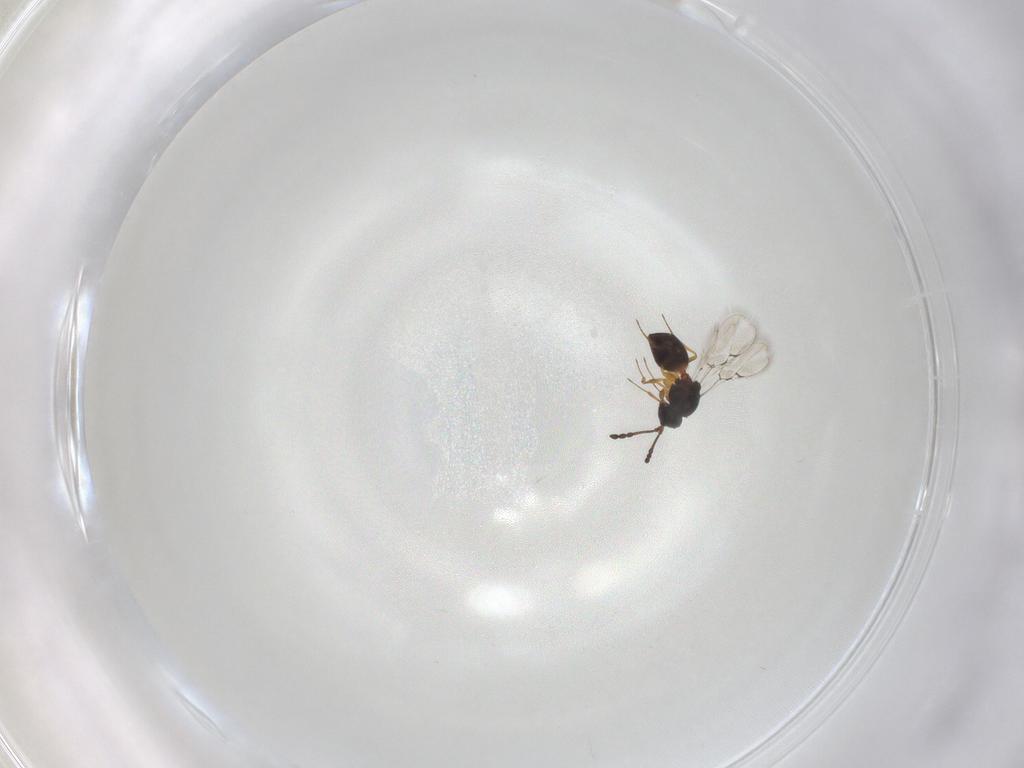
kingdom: Animalia
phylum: Arthropoda
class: Insecta
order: Hymenoptera
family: Figitidae
